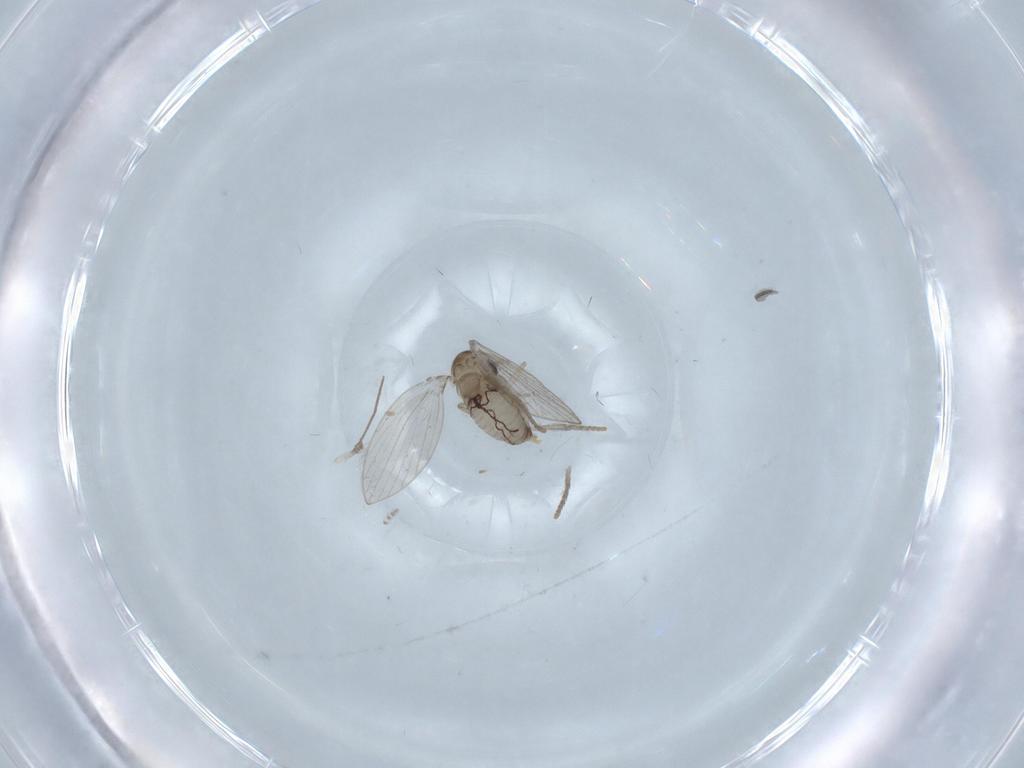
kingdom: Animalia
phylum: Arthropoda
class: Insecta
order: Diptera
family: Psychodidae
